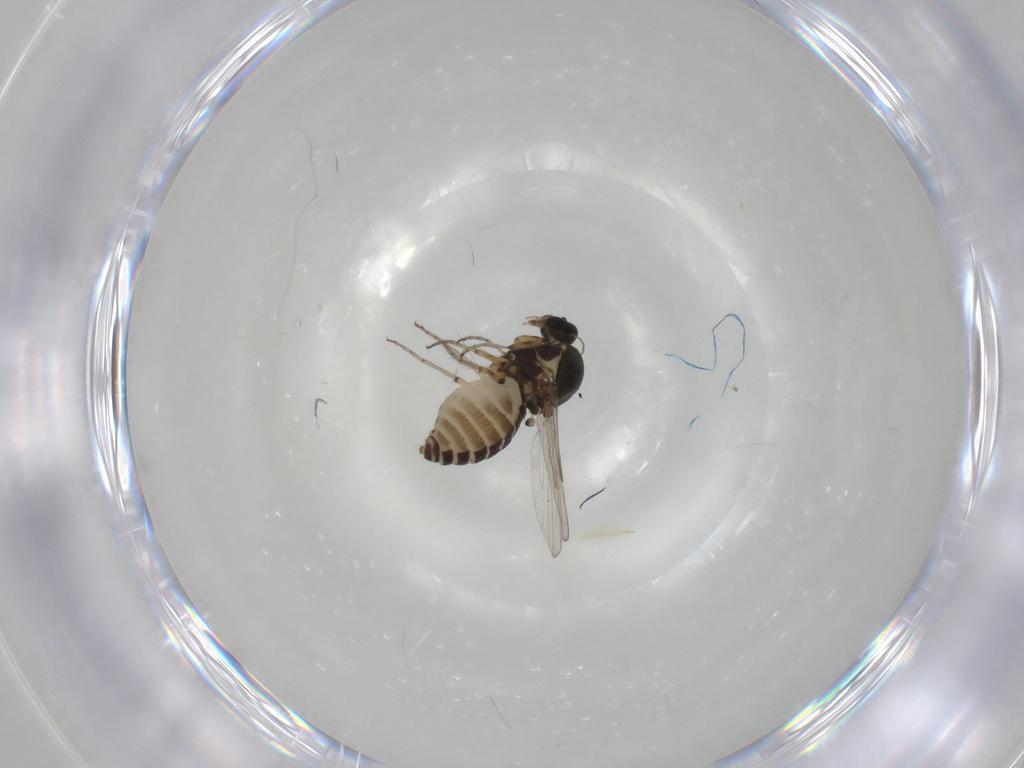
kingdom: Animalia
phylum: Arthropoda
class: Insecta
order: Diptera
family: Ceratopogonidae
